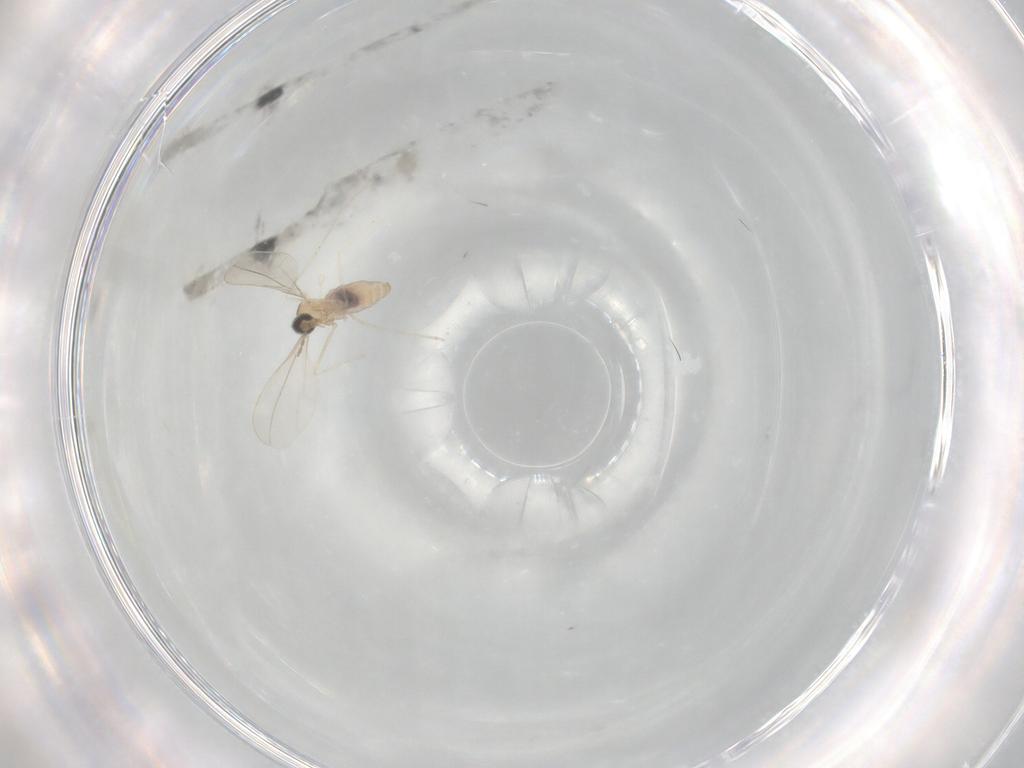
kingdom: Animalia
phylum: Arthropoda
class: Insecta
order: Diptera
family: Cecidomyiidae
